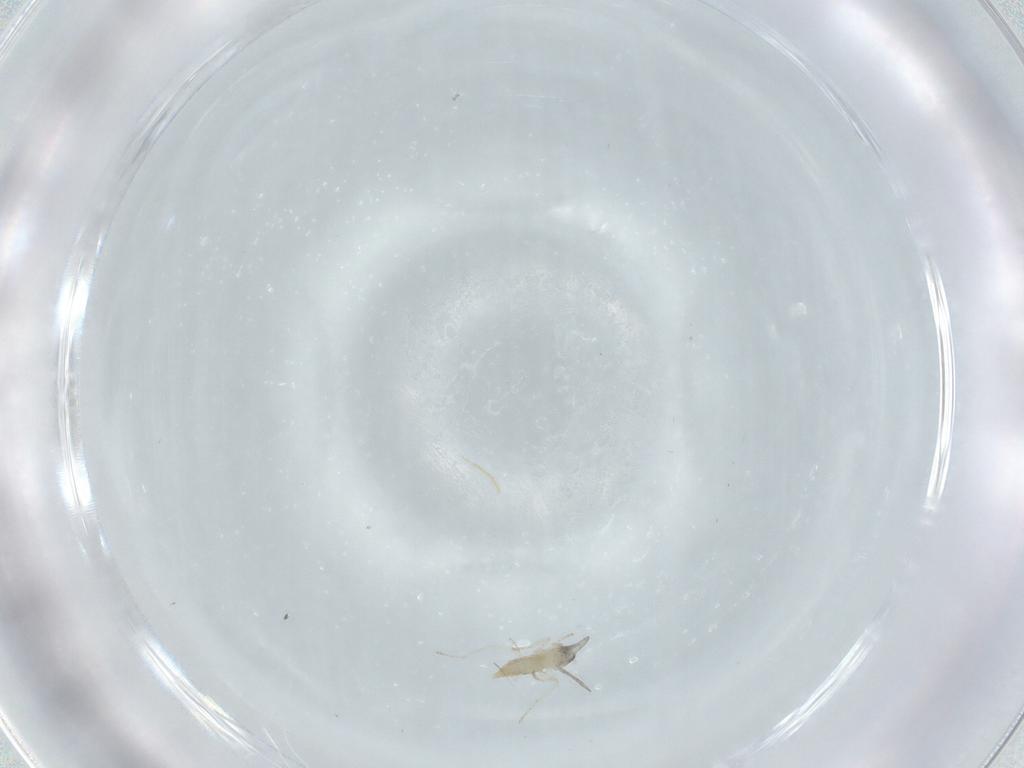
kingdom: Animalia
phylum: Arthropoda
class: Insecta
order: Diptera
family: Cecidomyiidae
